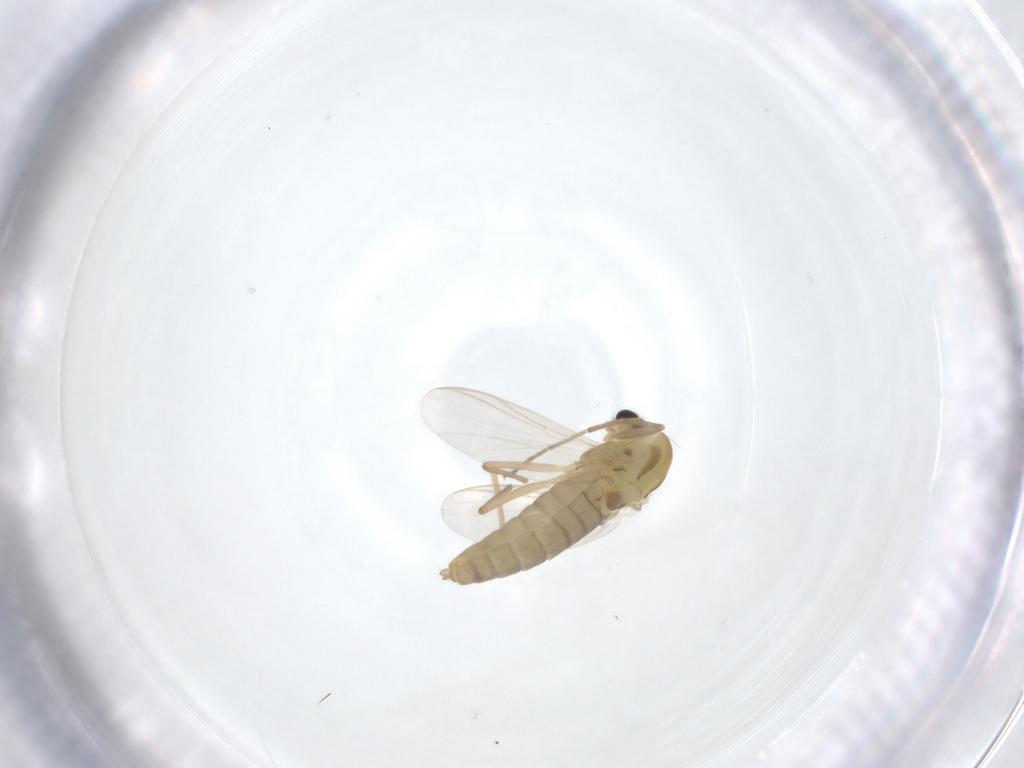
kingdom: Animalia
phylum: Arthropoda
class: Insecta
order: Diptera
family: Chironomidae
